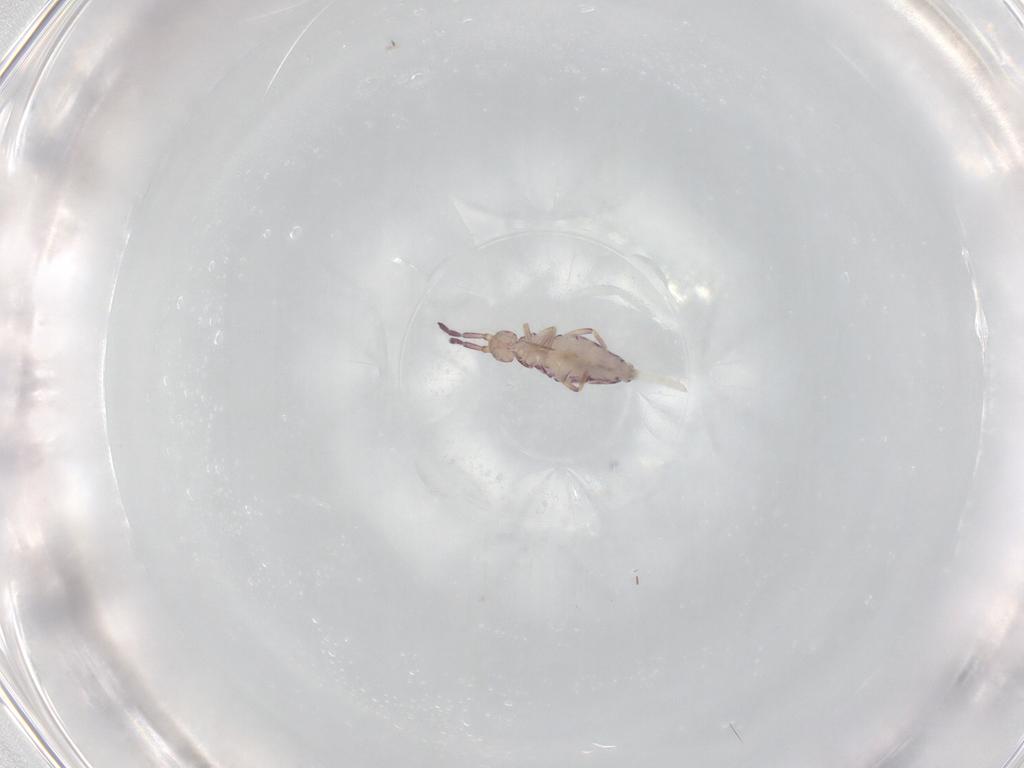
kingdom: Animalia
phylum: Arthropoda
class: Collembola
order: Entomobryomorpha
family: Entomobryidae
